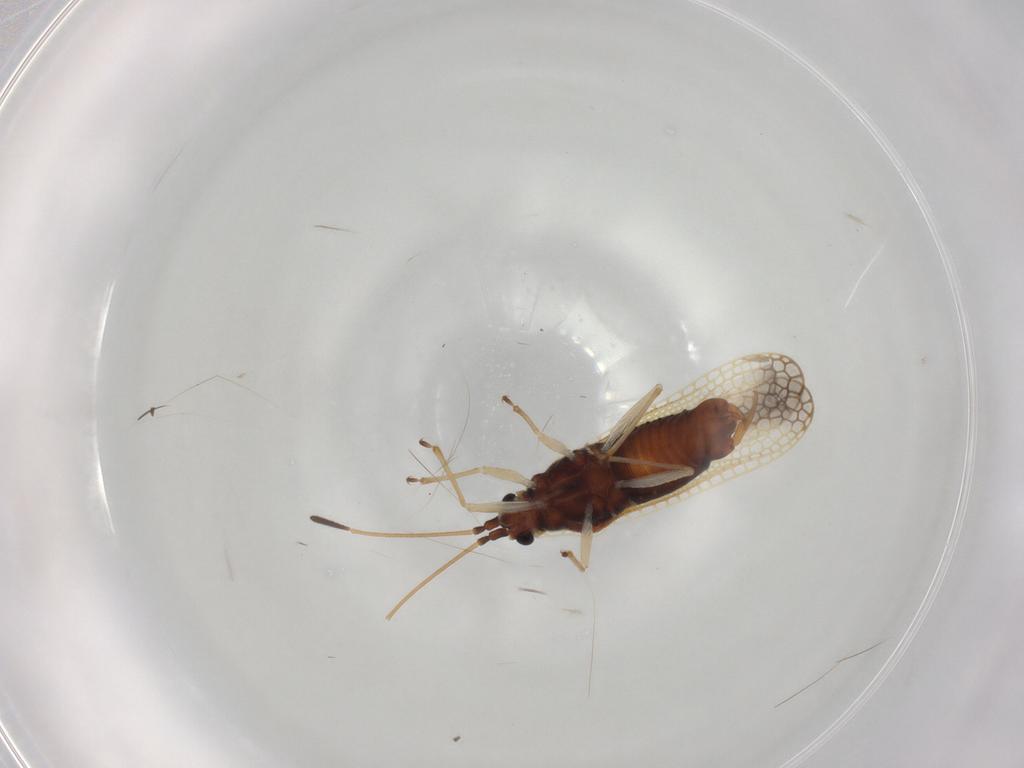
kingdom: Animalia
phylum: Arthropoda
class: Insecta
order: Hemiptera
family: Tingidae
